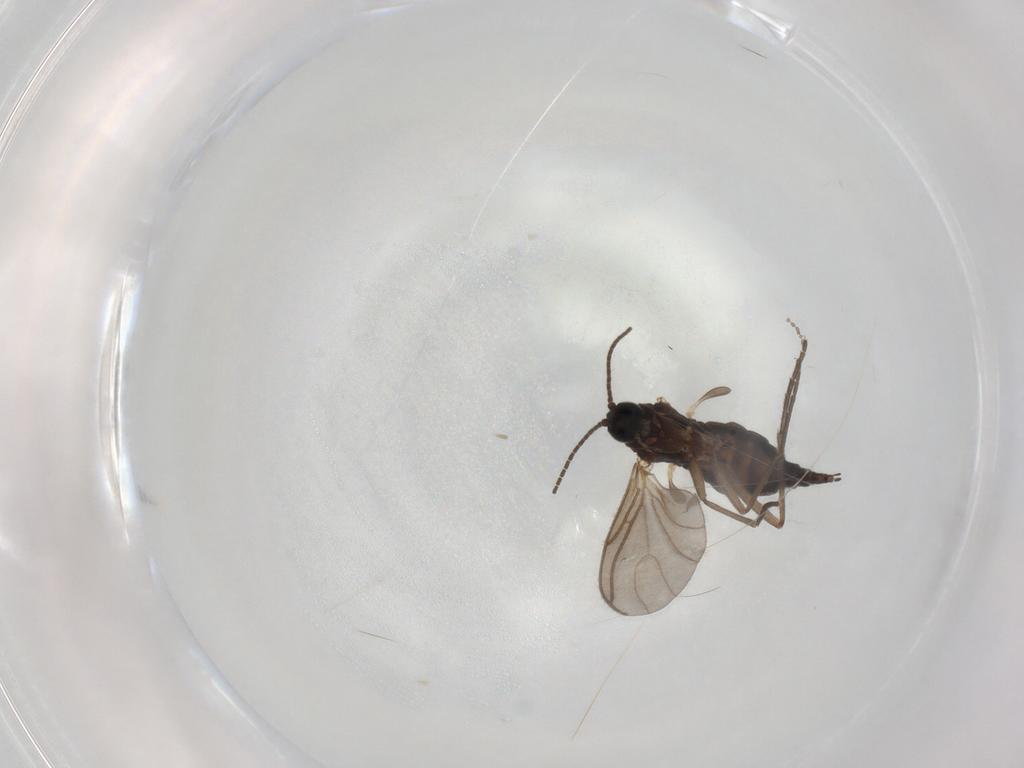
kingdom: Animalia
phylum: Arthropoda
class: Insecta
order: Diptera
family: Sciaridae
